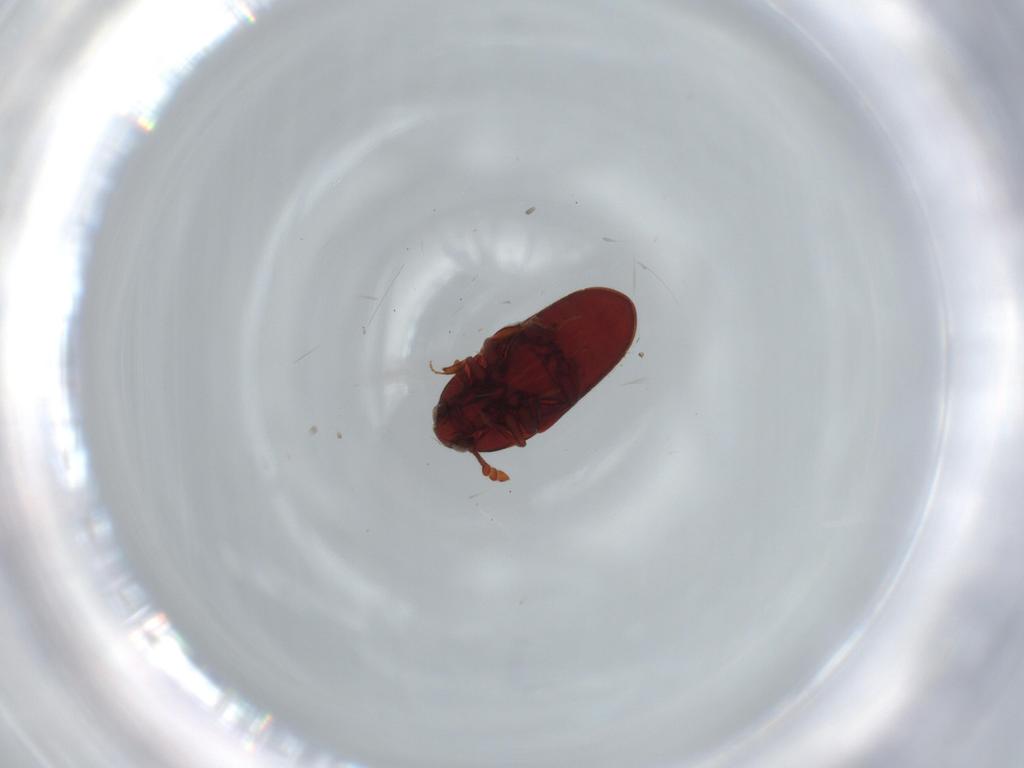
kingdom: Animalia
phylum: Arthropoda
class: Insecta
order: Coleoptera
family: Throscidae
